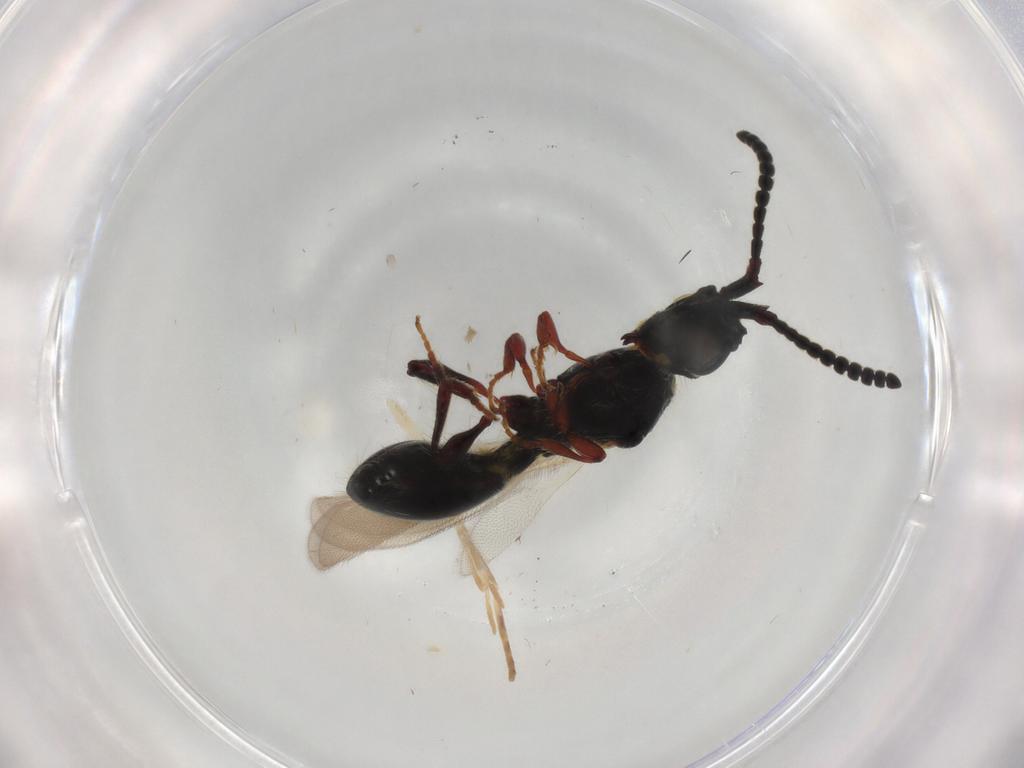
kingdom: Animalia
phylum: Arthropoda
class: Insecta
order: Hymenoptera
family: Diapriidae
